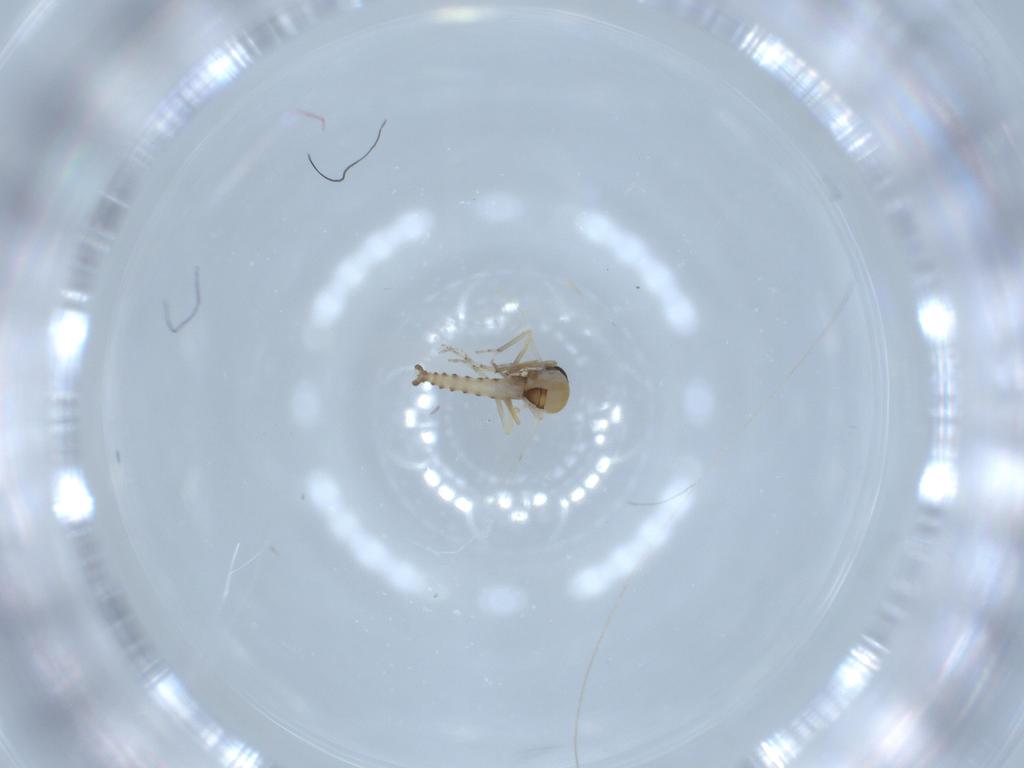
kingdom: Animalia
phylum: Arthropoda
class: Insecta
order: Diptera
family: Ceratopogonidae
